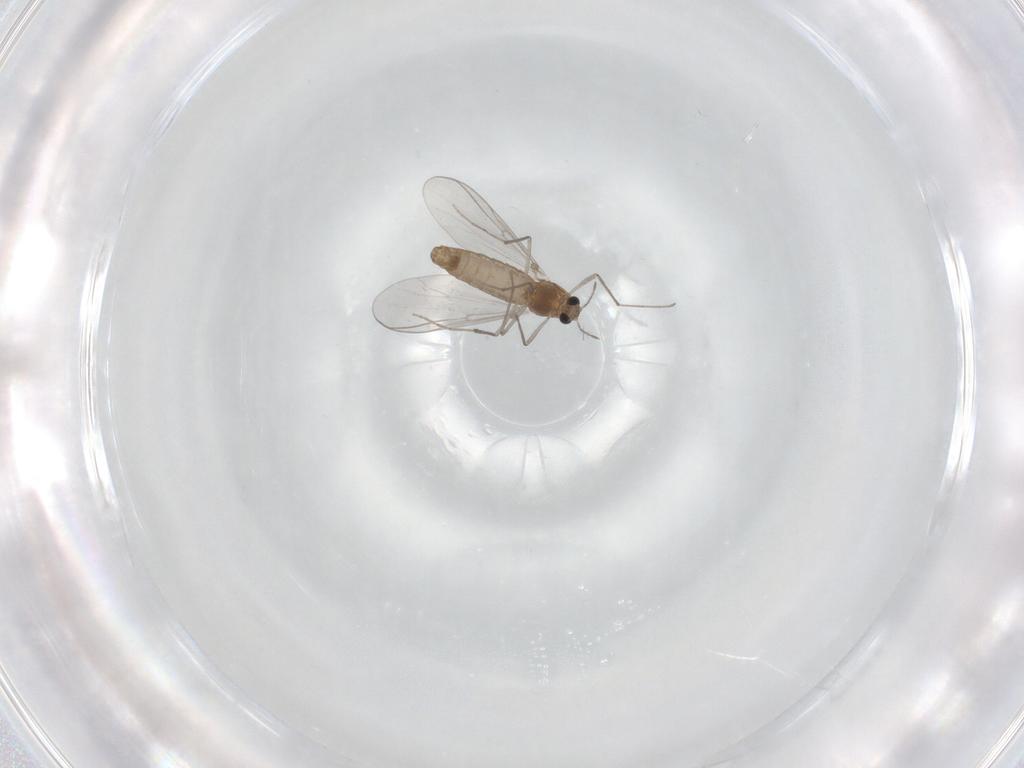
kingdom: Animalia
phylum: Arthropoda
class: Insecta
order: Diptera
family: Chironomidae
